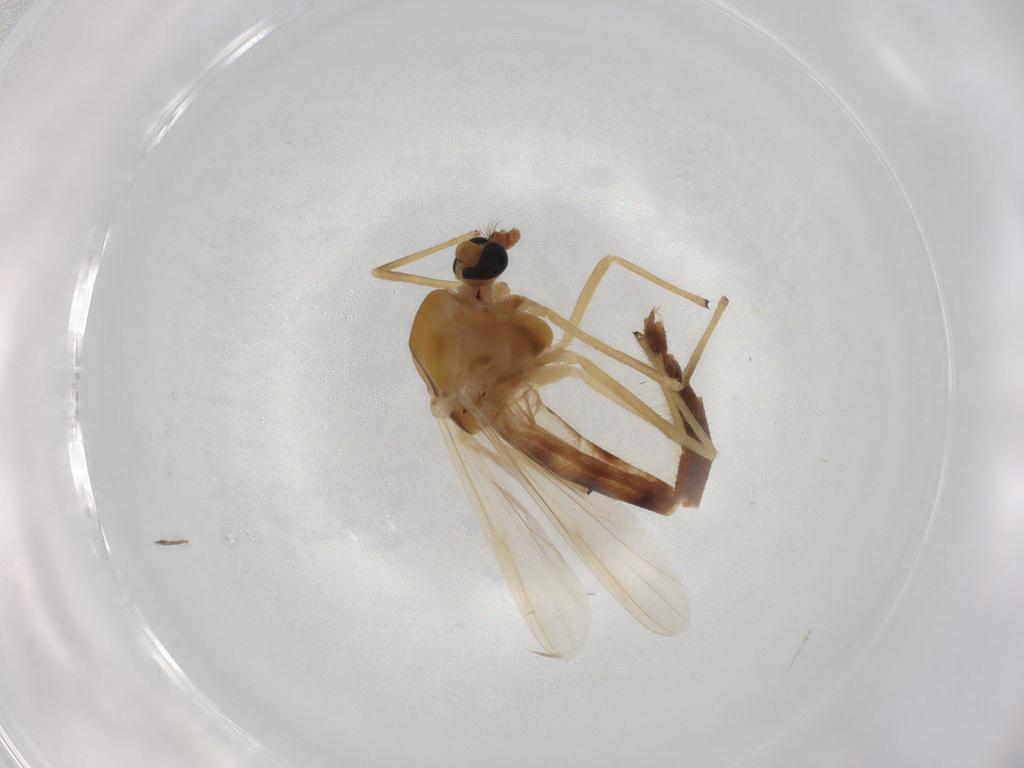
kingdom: Animalia
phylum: Arthropoda
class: Insecta
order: Diptera
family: Chironomidae
